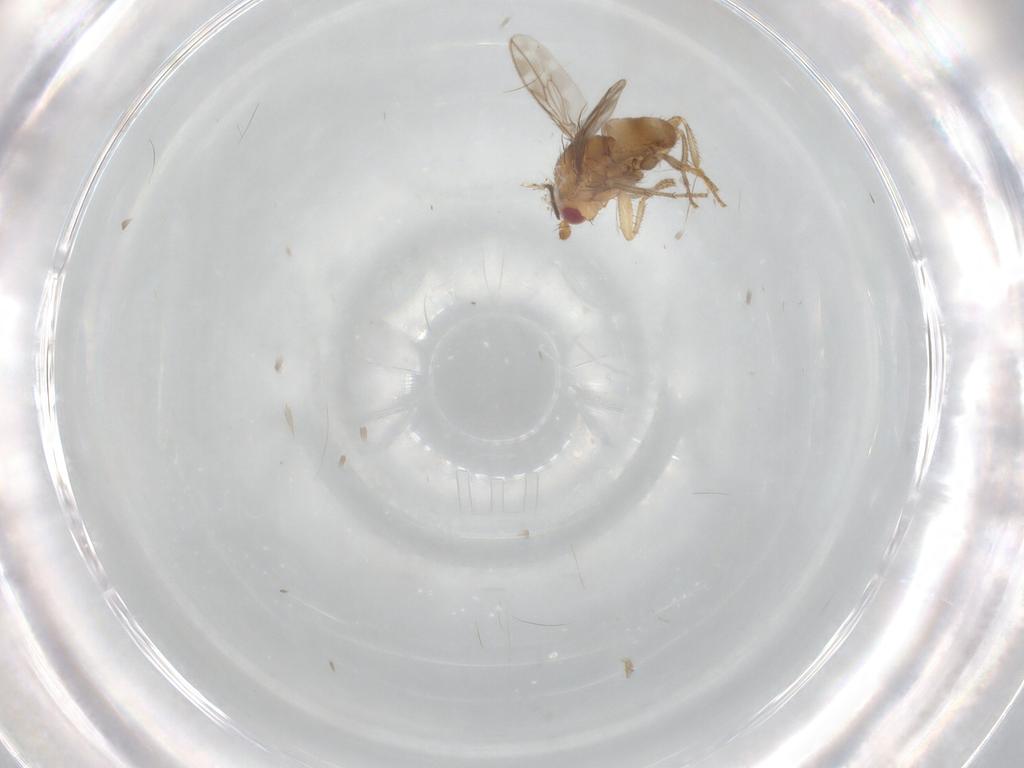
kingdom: Animalia
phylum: Arthropoda
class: Insecta
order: Diptera
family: Psychodidae
